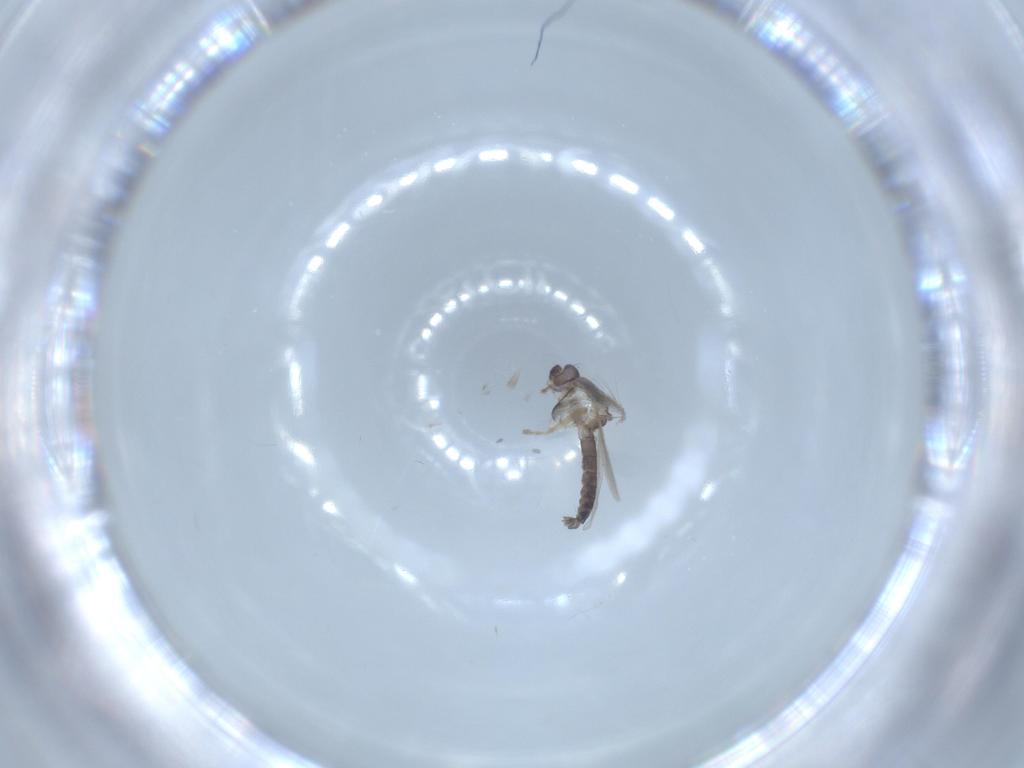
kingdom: Animalia
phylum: Arthropoda
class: Insecta
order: Diptera
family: Ceratopogonidae
